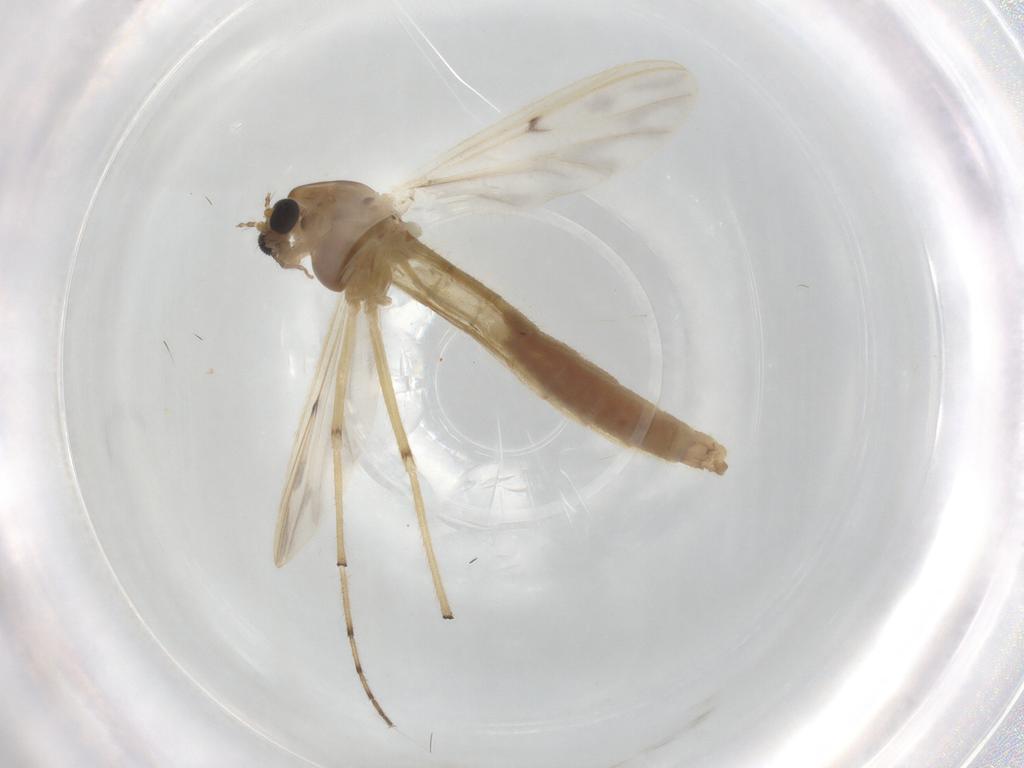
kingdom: Animalia
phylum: Arthropoda
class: Insecta
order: Diptera
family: Chironomidae
